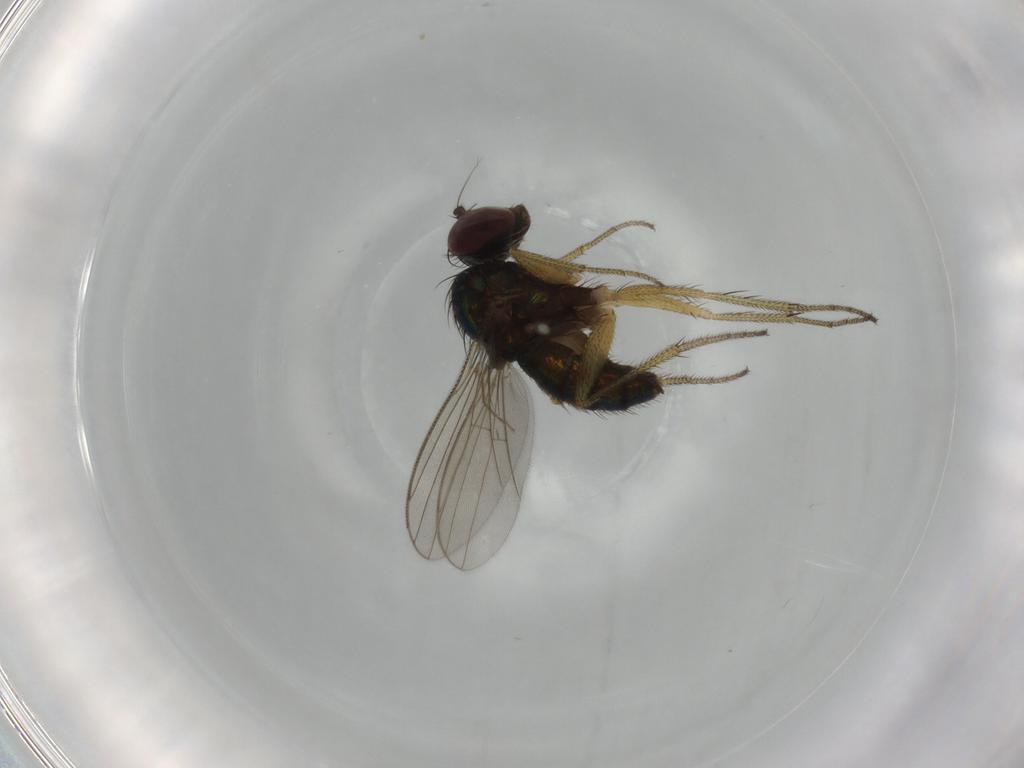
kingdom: Animalia
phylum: Arthropoda
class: Insecta
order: Diptera
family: Dolichopodidae
